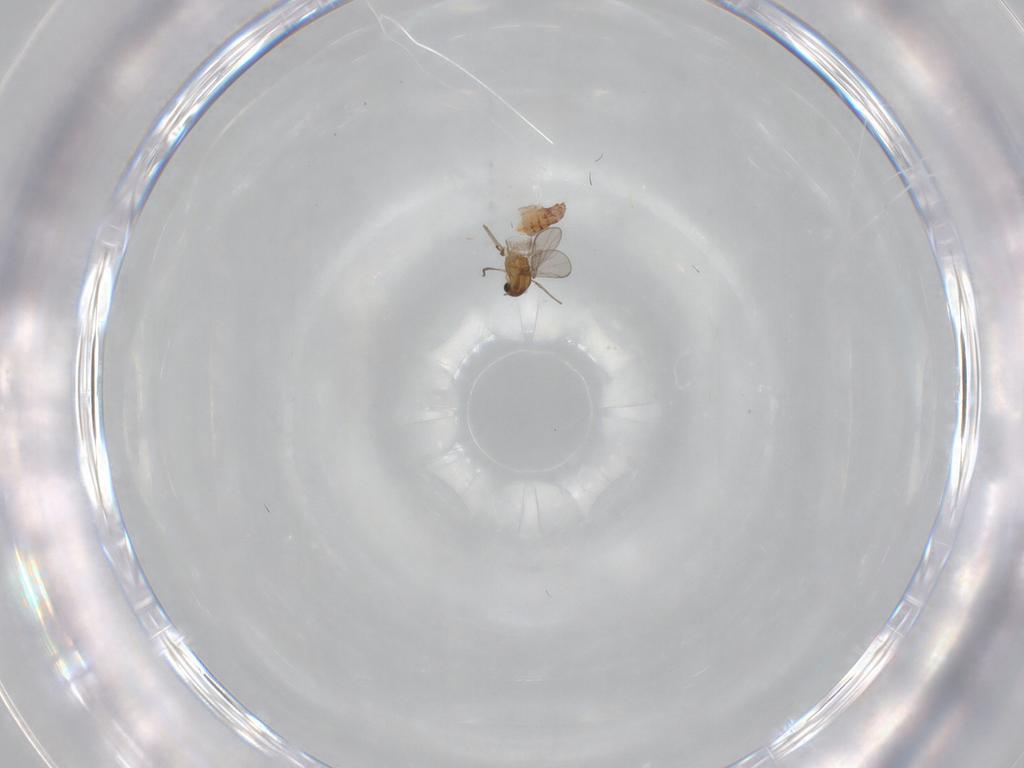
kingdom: Animalia
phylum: Arthropoda
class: Insecta
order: Diptera
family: Chironomidae
